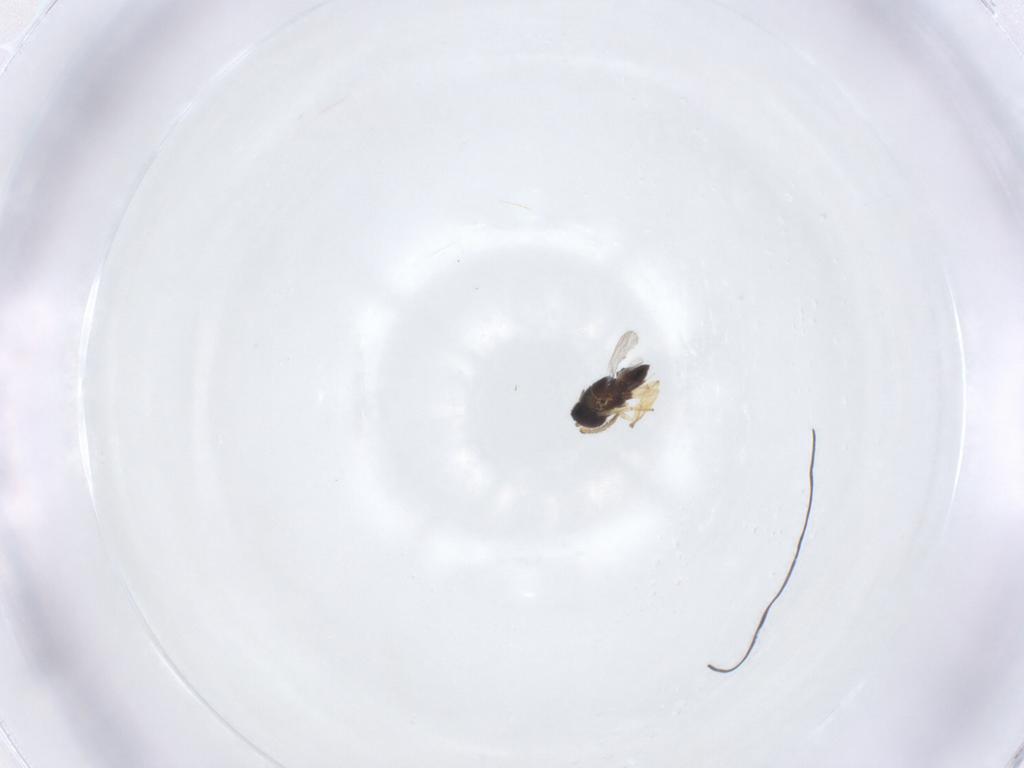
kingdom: Animalia
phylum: Arthropoda
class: Insecta
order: Hymenoptera
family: Encyrtidae
